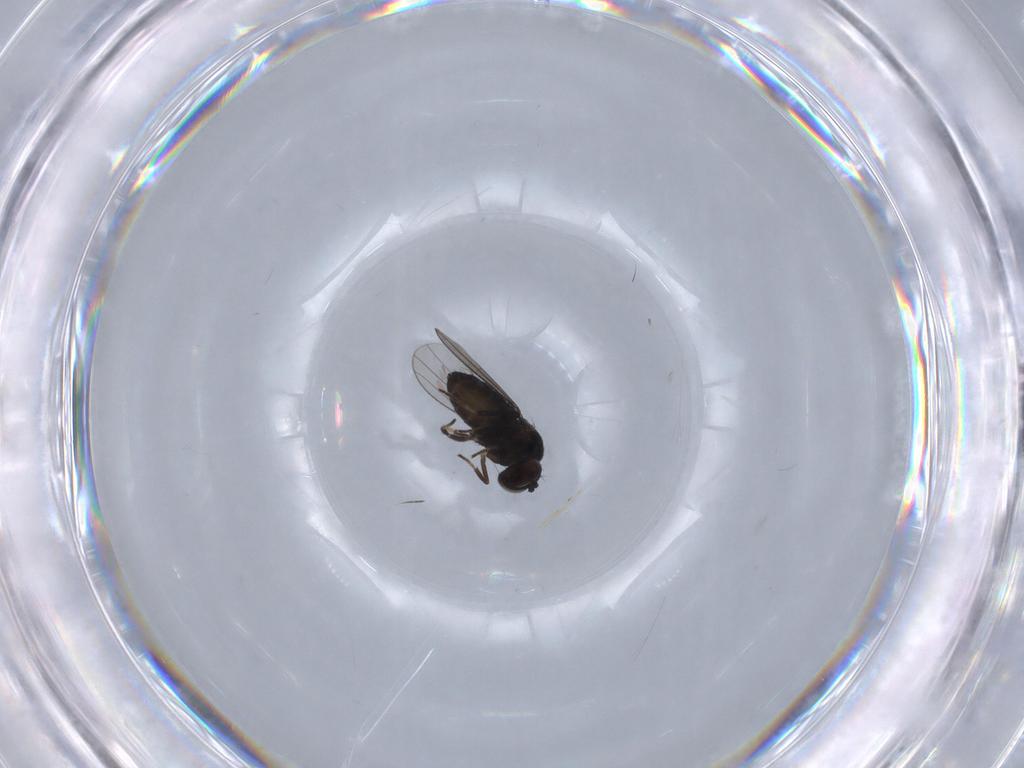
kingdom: Animalia
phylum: Arthropoda
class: Insecta
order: Diptera
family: Dolichopodidae
